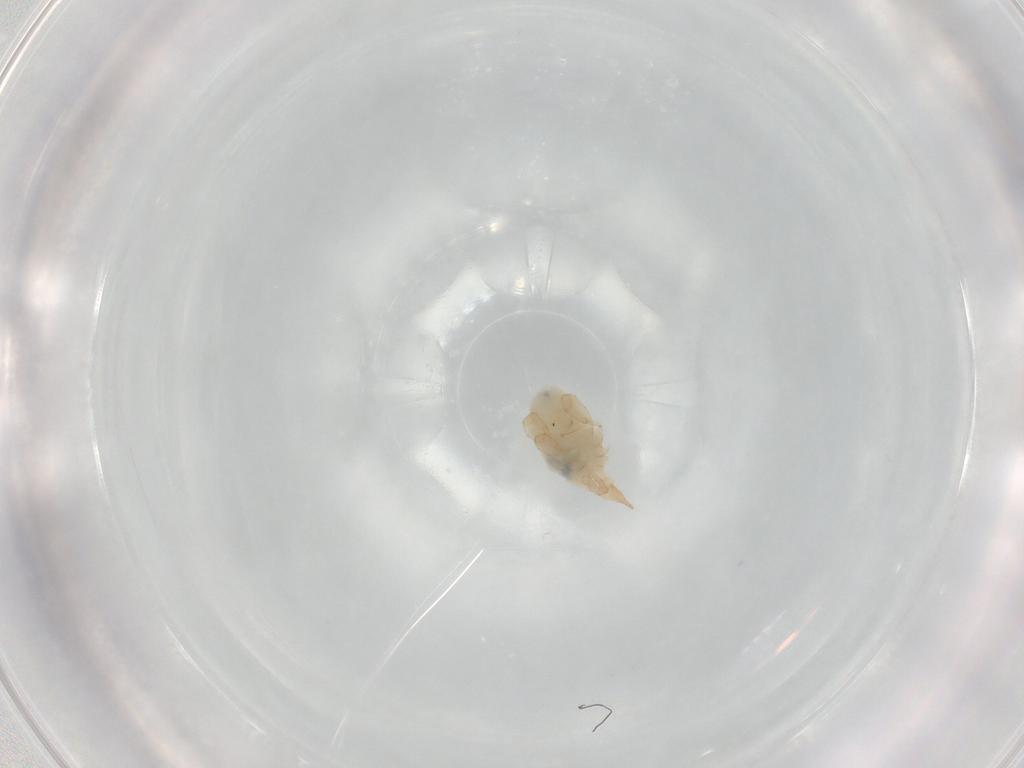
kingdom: Animalia
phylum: Arthropoda
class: Arachnida
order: Trombidiformes
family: Bdellidae
